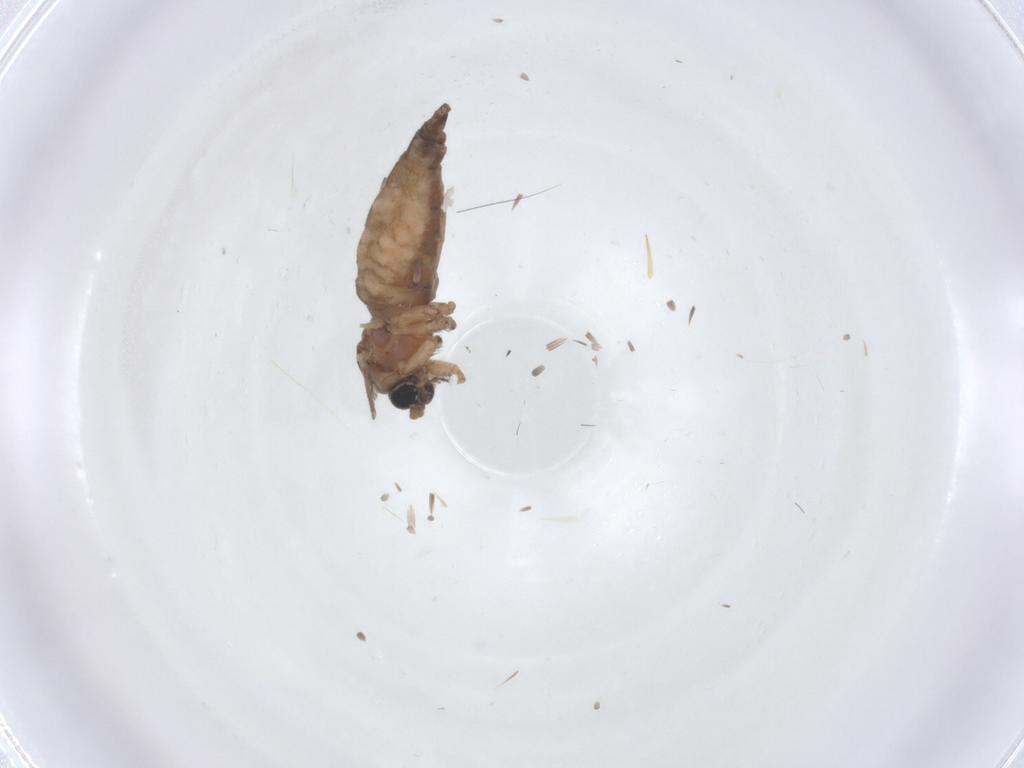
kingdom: Animalia
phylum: Arthropoda
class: Insecta
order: Diptera
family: Sciaridae
